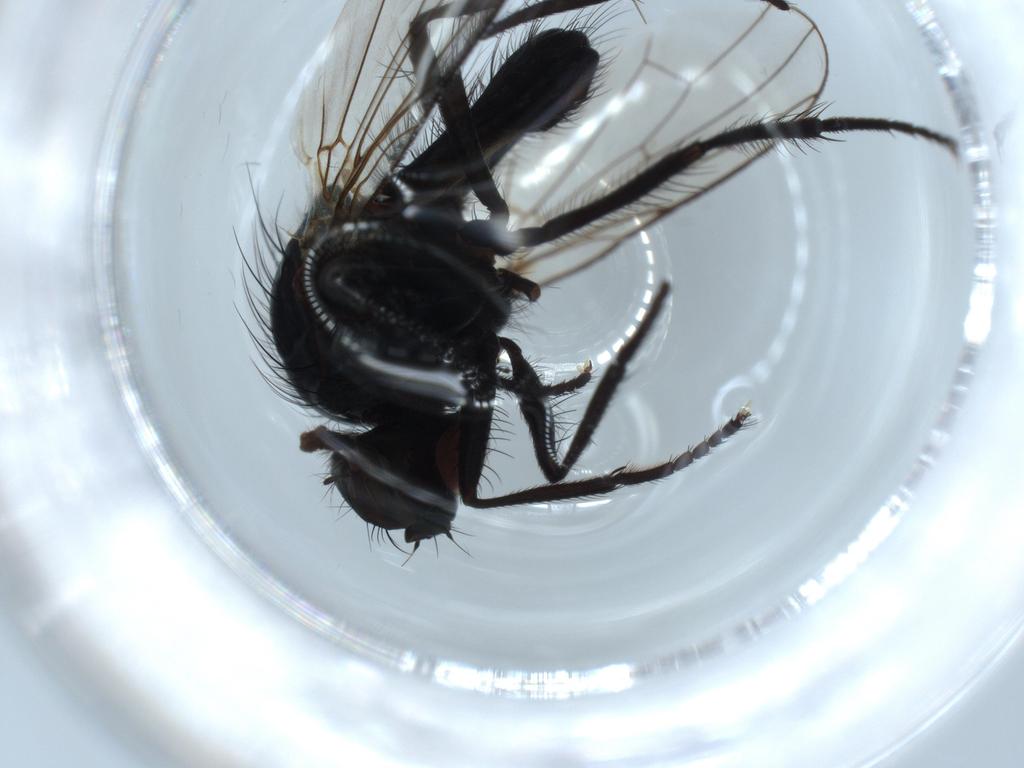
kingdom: Animalia
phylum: Arthropoda
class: Insecta
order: Diptera
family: Anthomyiidae
